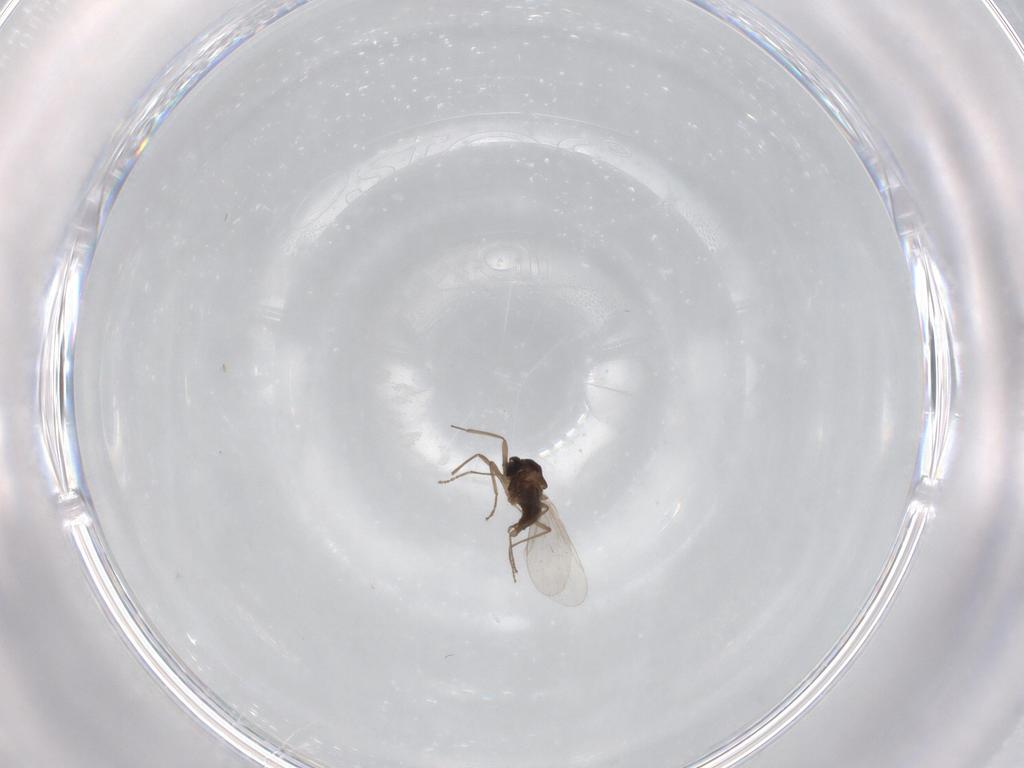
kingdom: Animalia
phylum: Arthropoda
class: Insecta
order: Diptera
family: Cecidomyiidae
